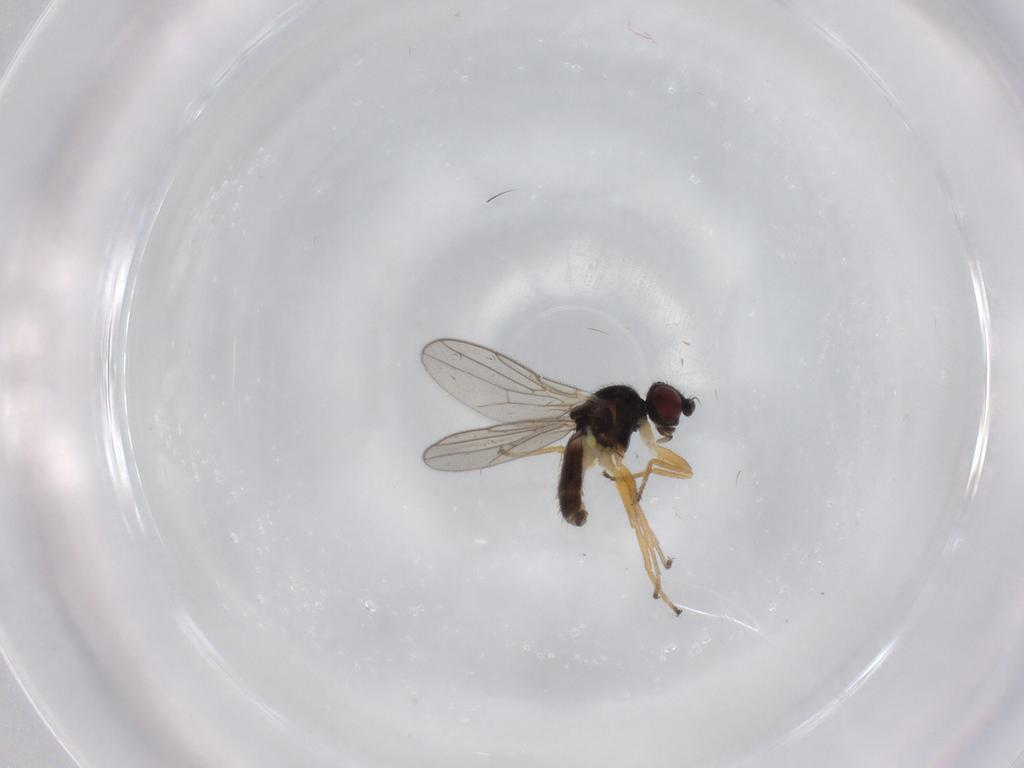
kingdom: Animalia
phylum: Arthropoda
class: Insecta
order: Diptera
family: Chloropidae
